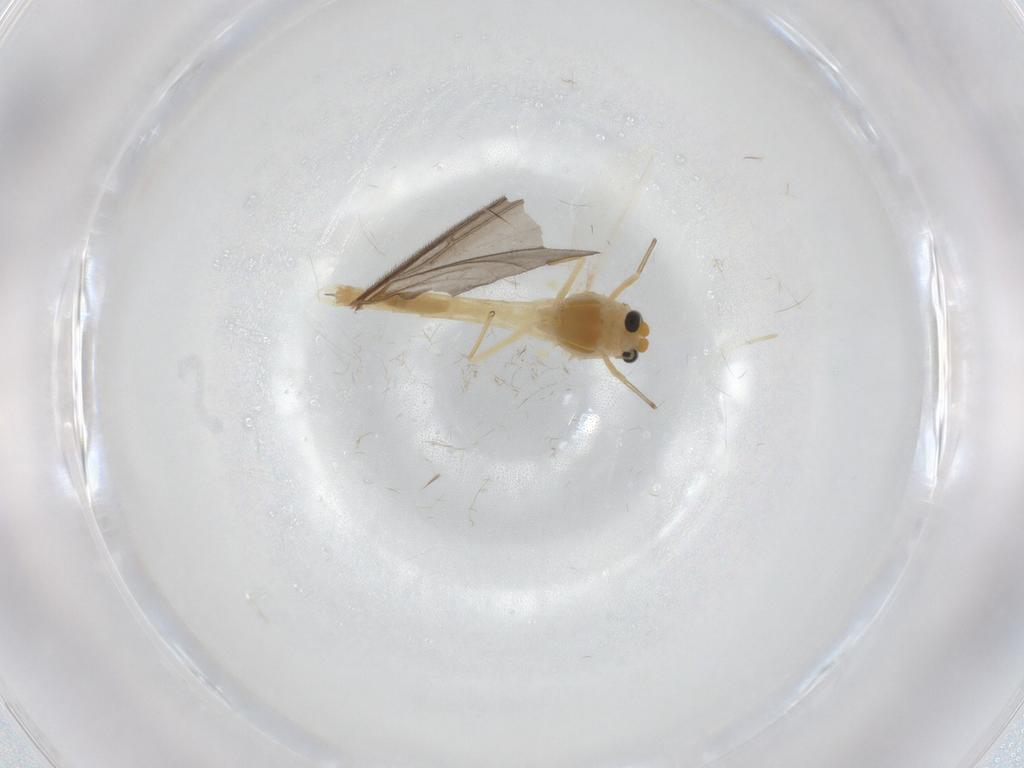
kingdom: Animalia
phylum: Arthropoda
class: Insecta
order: Diptera
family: Chironomidae
